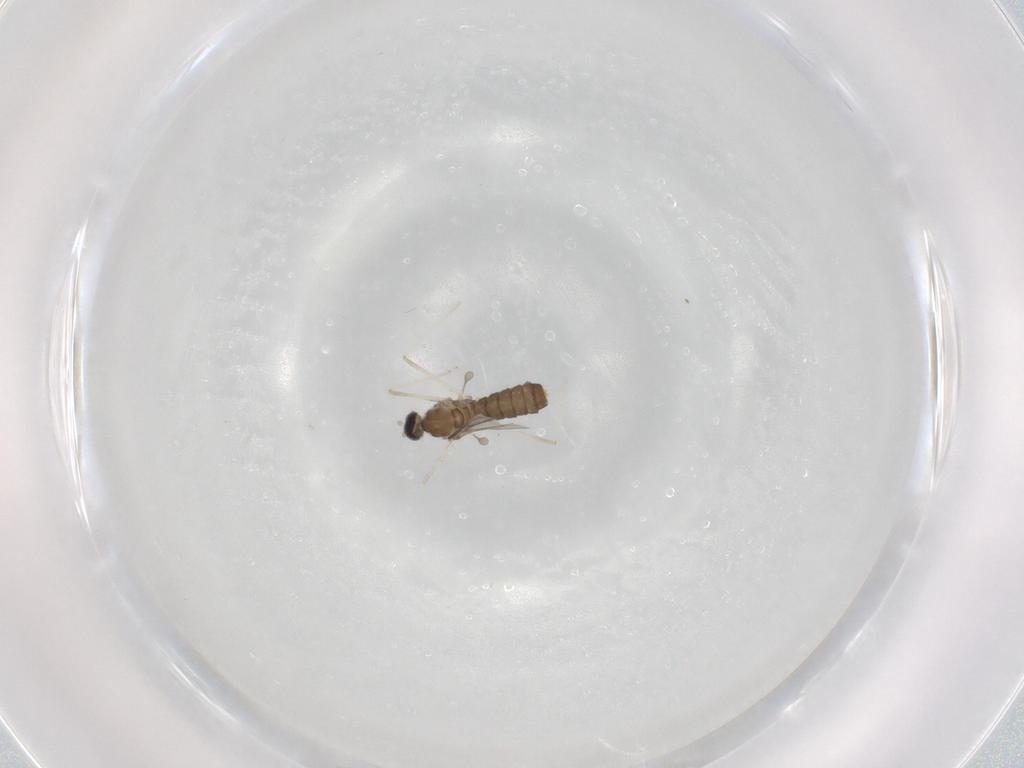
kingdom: Animalia
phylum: Arthropoda
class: Insecta
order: Diptera
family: Cecidomyiidae
